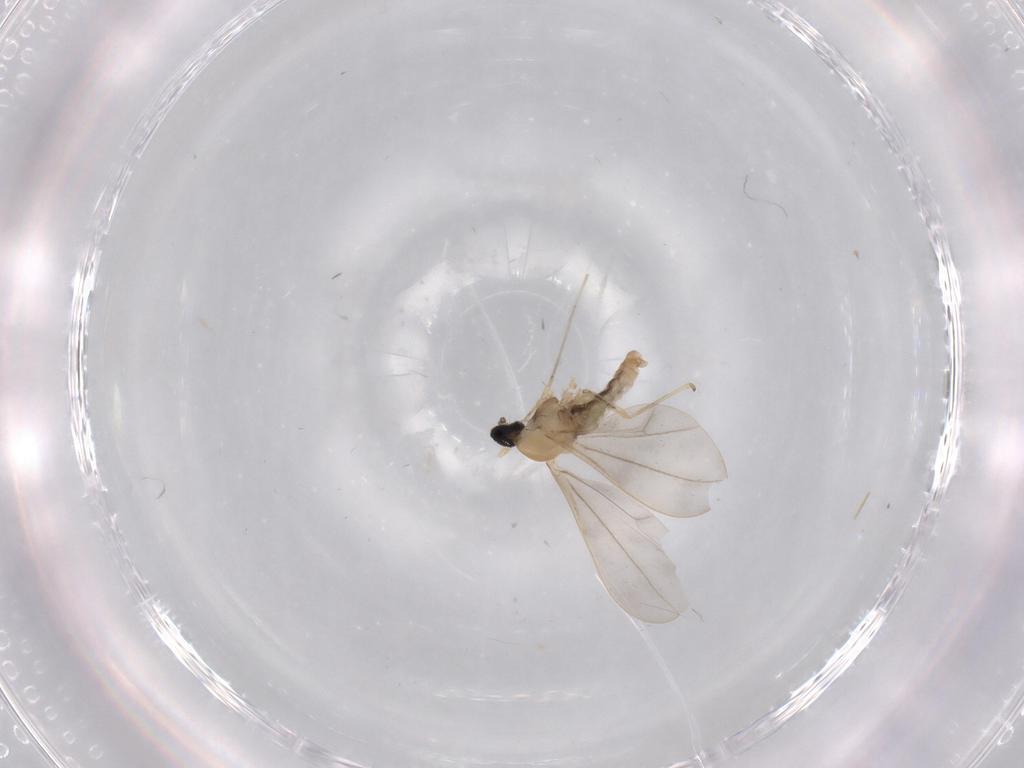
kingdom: Animalia
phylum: Arthropoda
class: Insecta
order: Diptera
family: Cecidomyiidae
